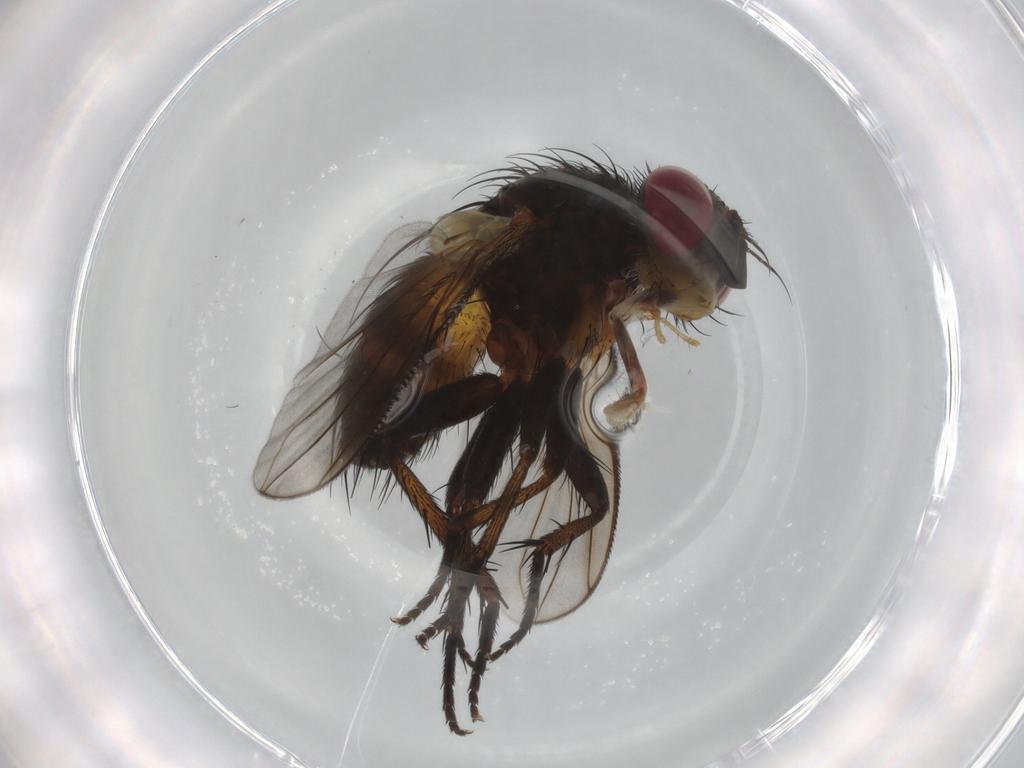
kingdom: Animalia
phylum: Arthropoda
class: Insecta
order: Diptera
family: Tachinidae
